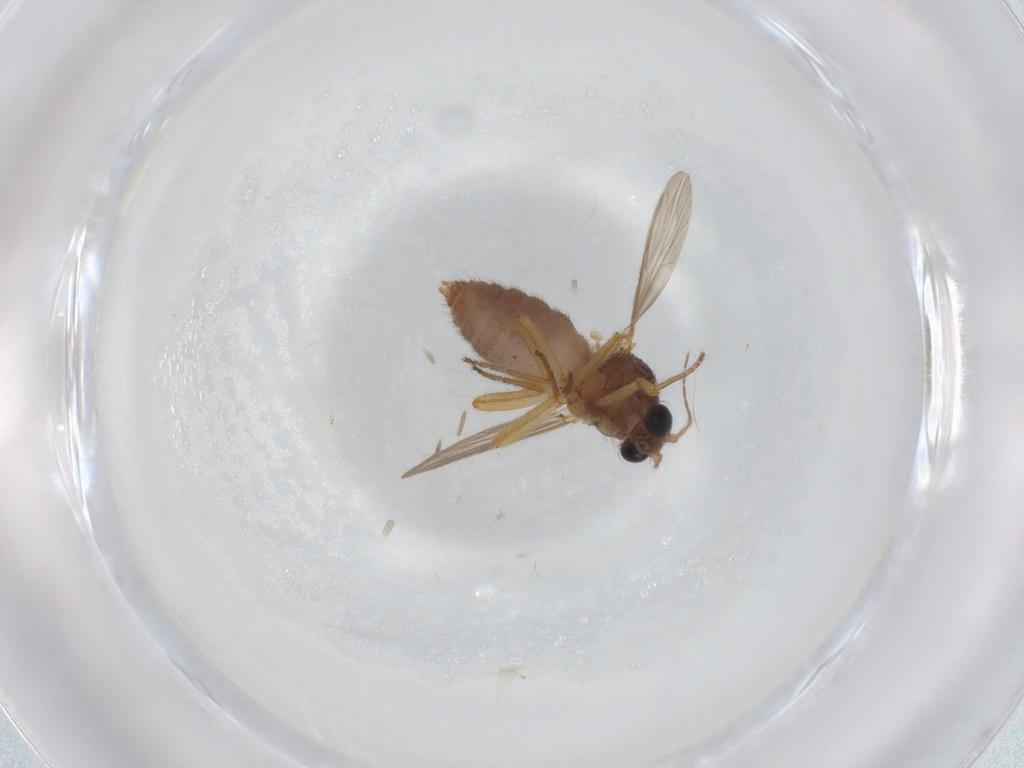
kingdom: Animalia
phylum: Arthropoda
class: Insecta
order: Diptera
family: Ceratopogonidae
